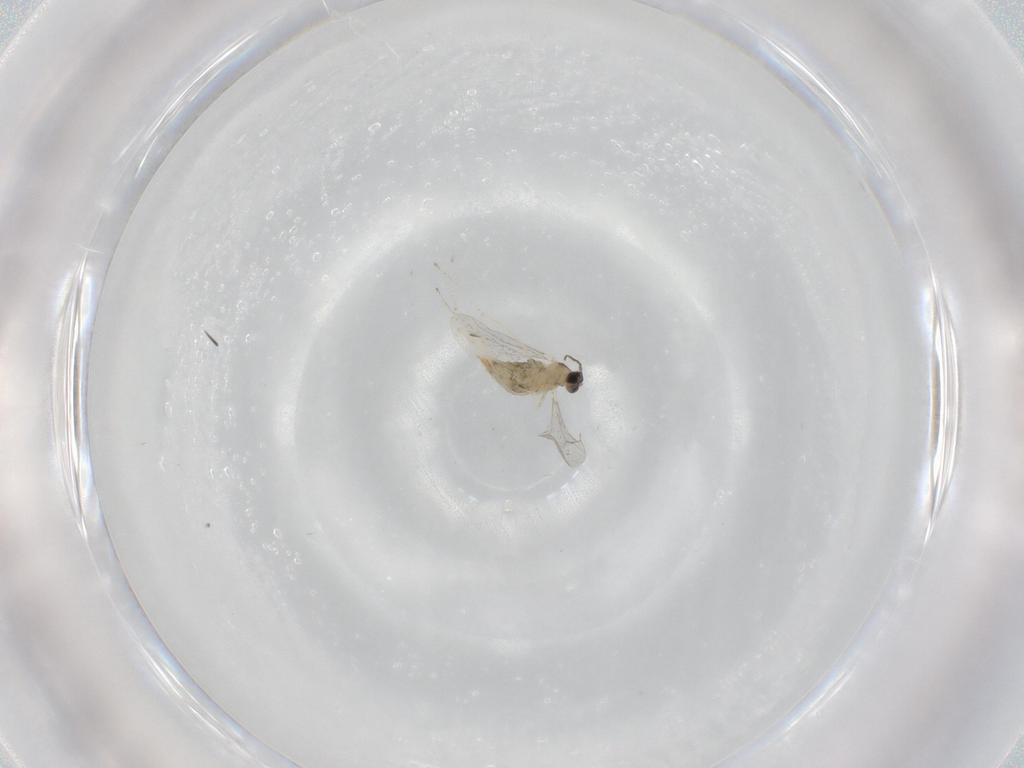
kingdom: Animalia
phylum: Arthropoda
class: Insecta
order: Diptera
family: Cecidomyiidae
